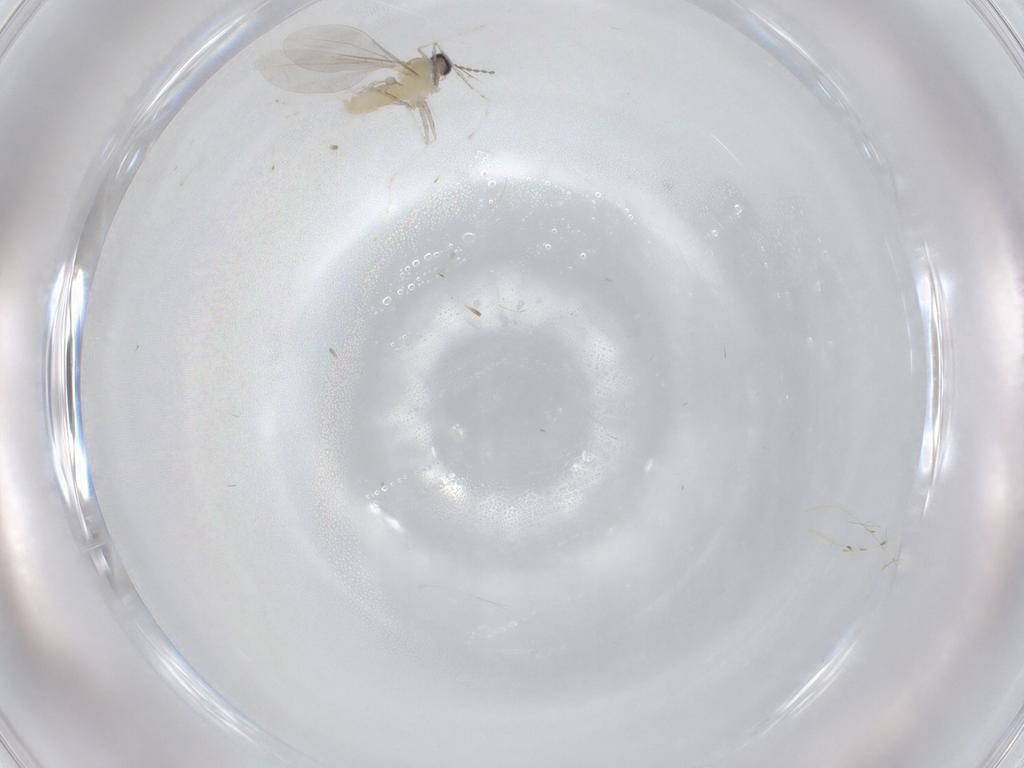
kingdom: Animalia
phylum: Arthropoda
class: Insecta
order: Diptera
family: Cecidomyiidae
